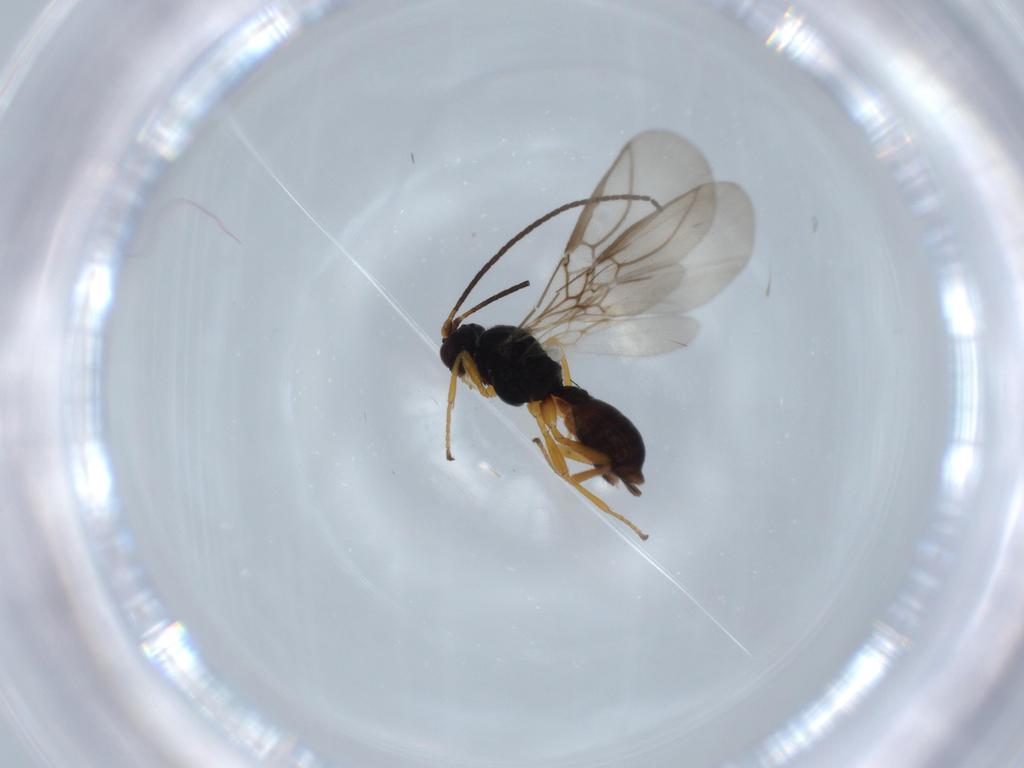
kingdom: Animalia
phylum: Arthropoda
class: Insecta
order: Hymenoptera
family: Braconidae
